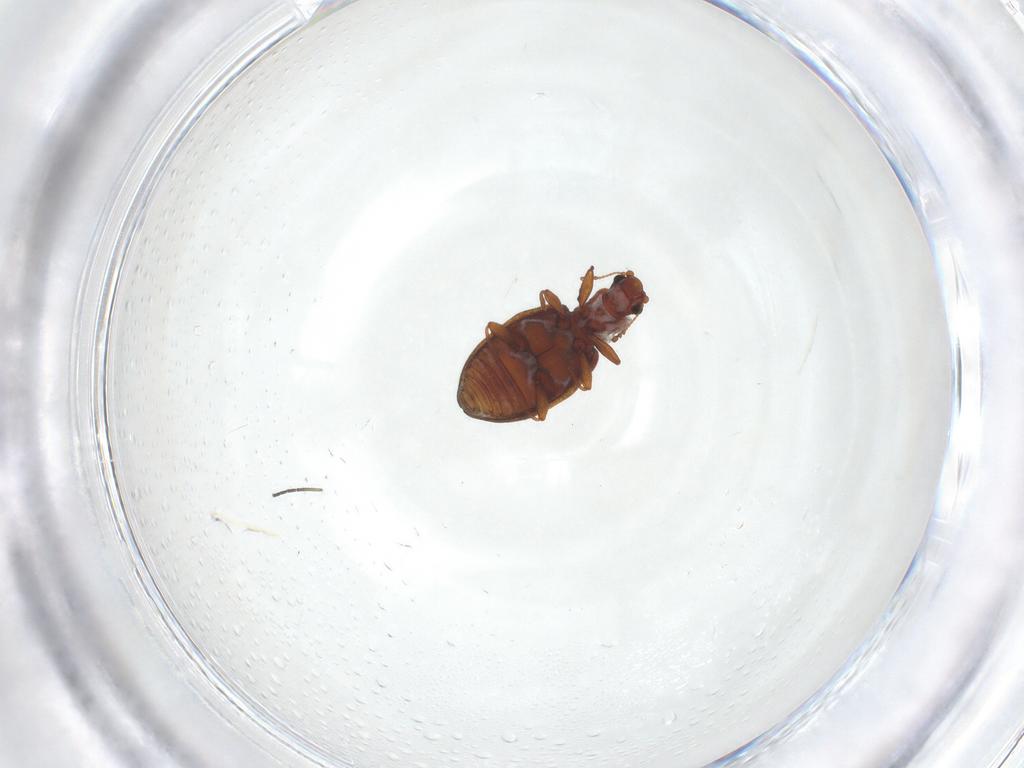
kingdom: Animalia
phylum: Arthropoda
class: Insecta
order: Coleoptera
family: Latridiidae
